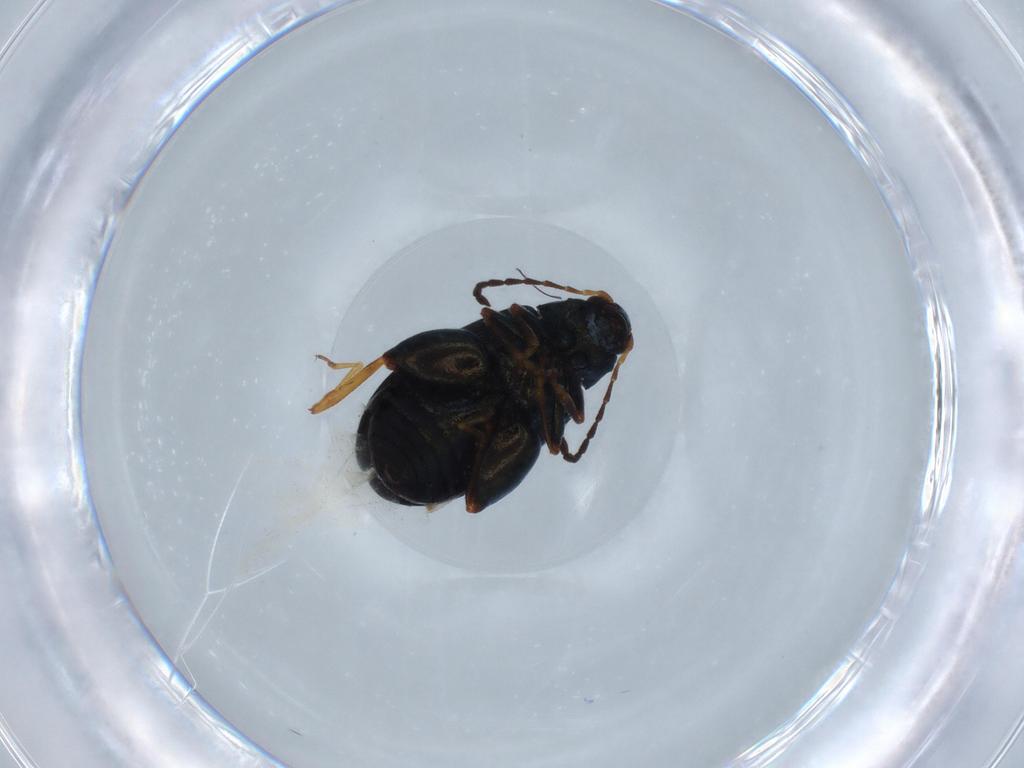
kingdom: Animalia
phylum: Arthropoda
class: Insecta
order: Coleoptera
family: Chrysomelidae
